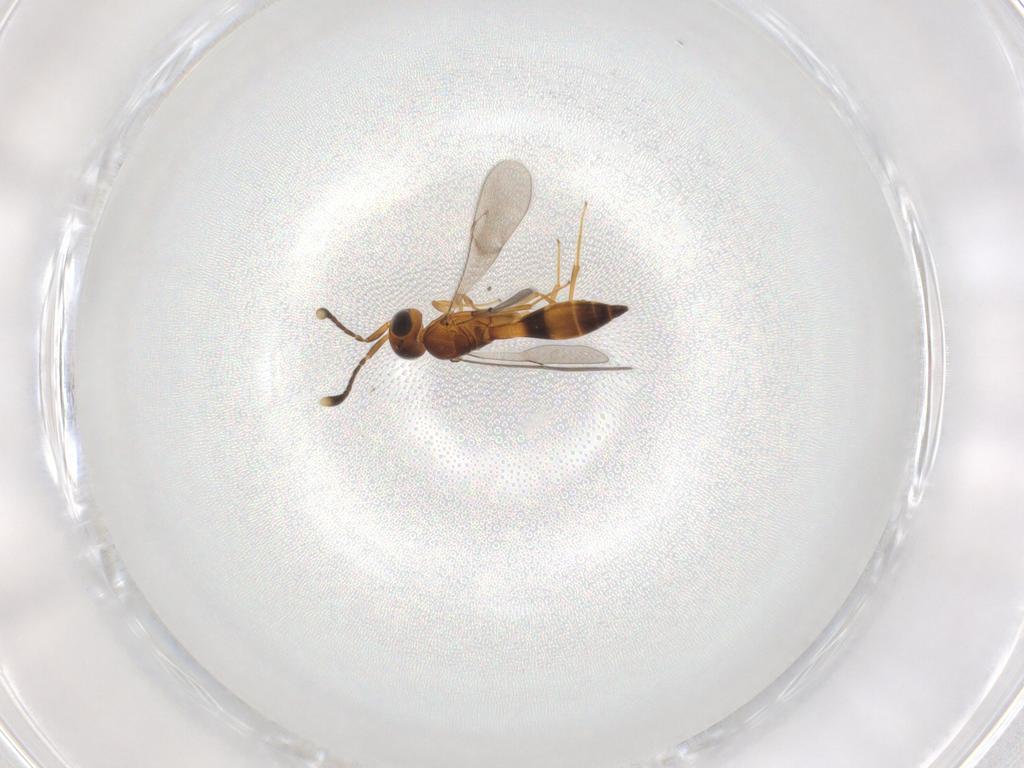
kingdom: Animalia
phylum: Arthropoda
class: Insecta
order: Hymenoptera
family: Scelionidae
